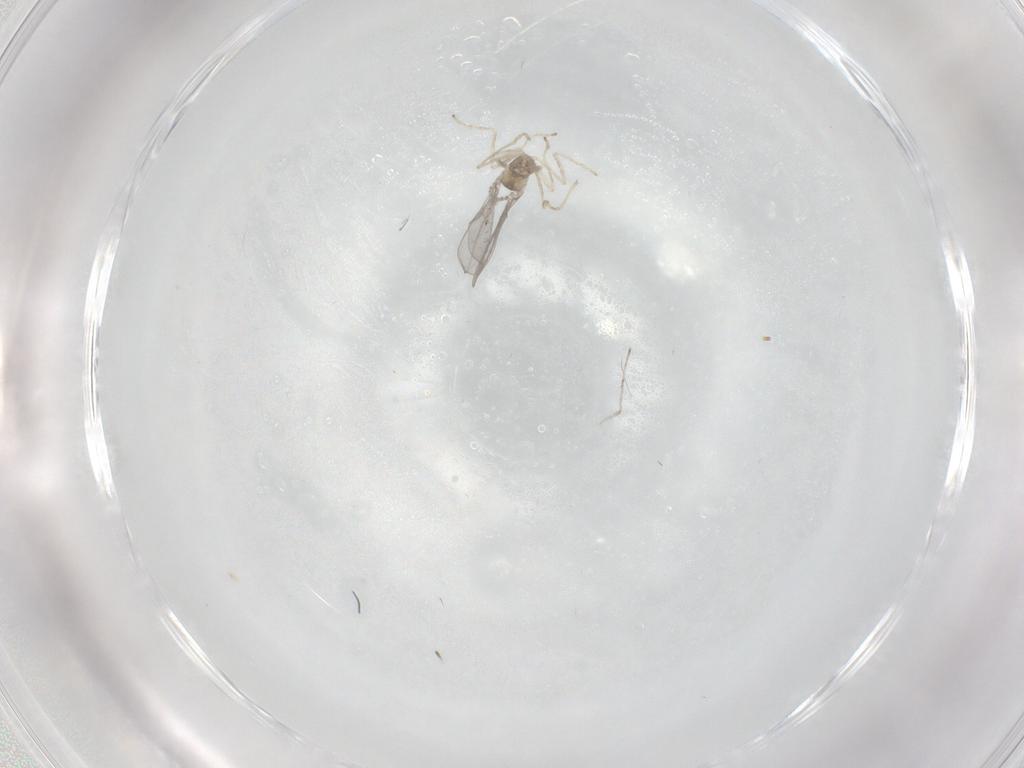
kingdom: Animalia
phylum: Arthropoda
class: Insecta
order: Diptera
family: Cecidomyiidae
